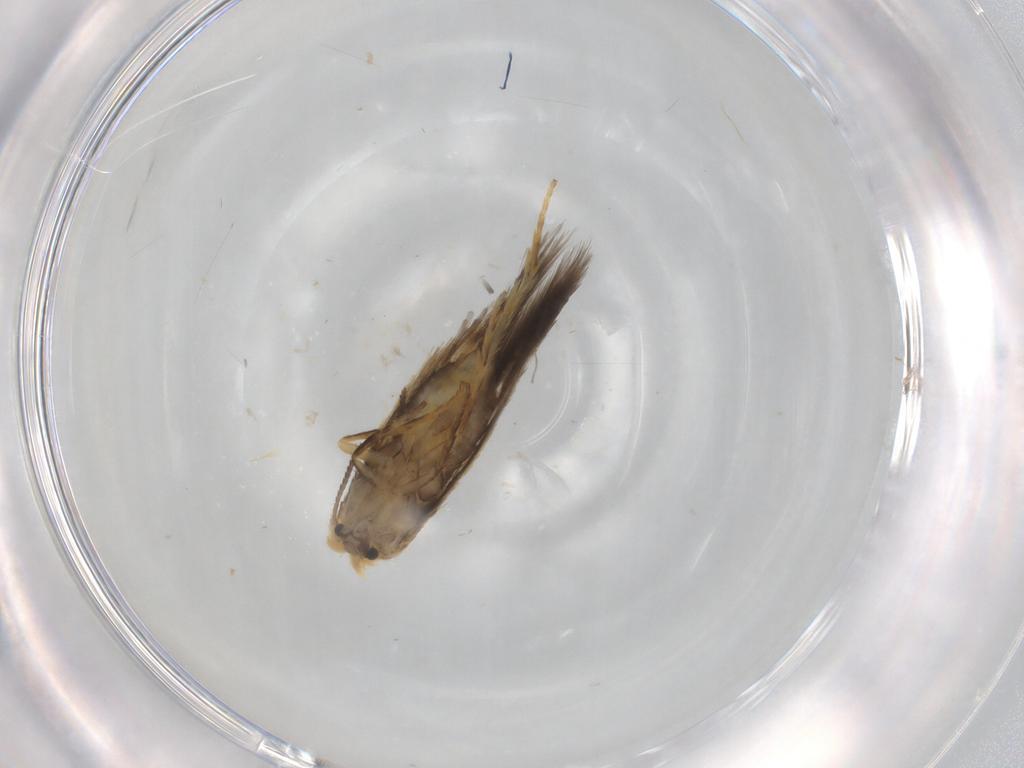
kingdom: Animalia
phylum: Arthropoda
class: Insecta
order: Lepidoptera
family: Nepticulidae
